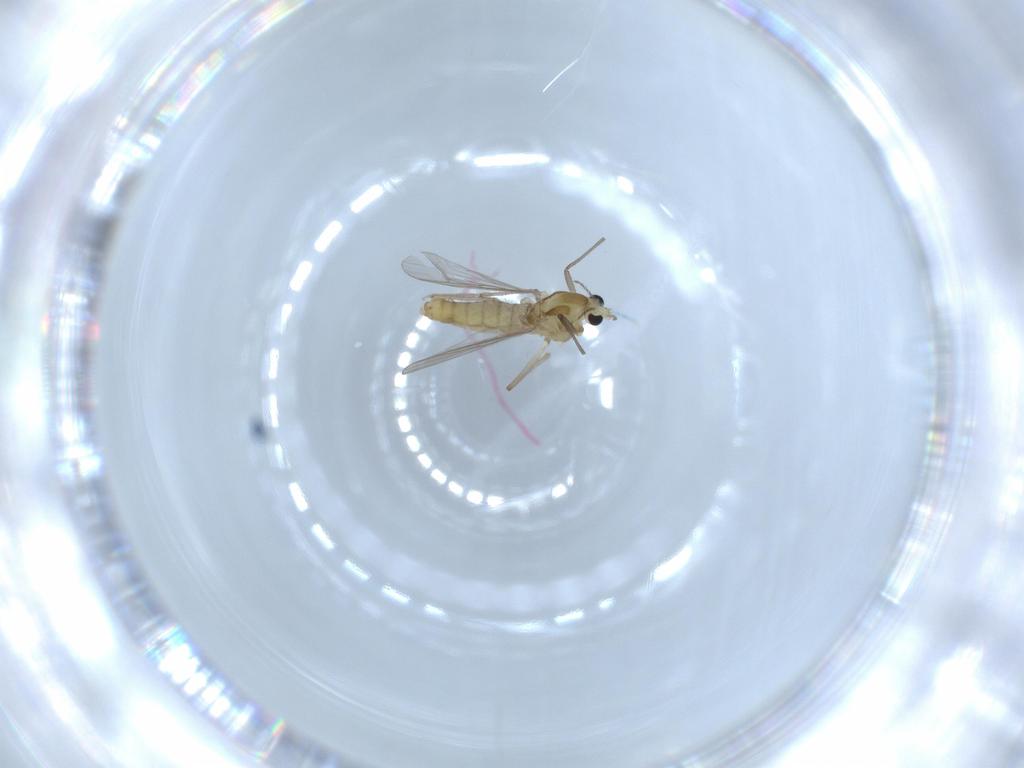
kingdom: Animalia
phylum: Arthropoda
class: Insecta
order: Diptera
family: Chironomidae
